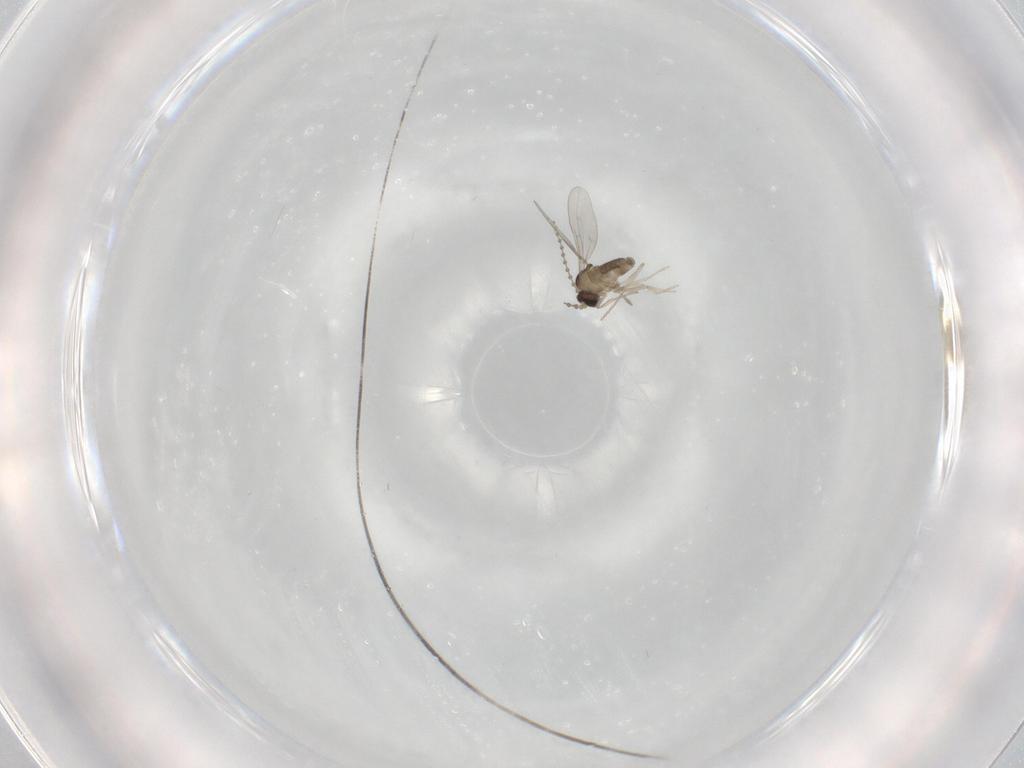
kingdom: Animalia
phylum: Arthropoda
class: Insecta
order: Diptera
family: Cecidomyiidae
